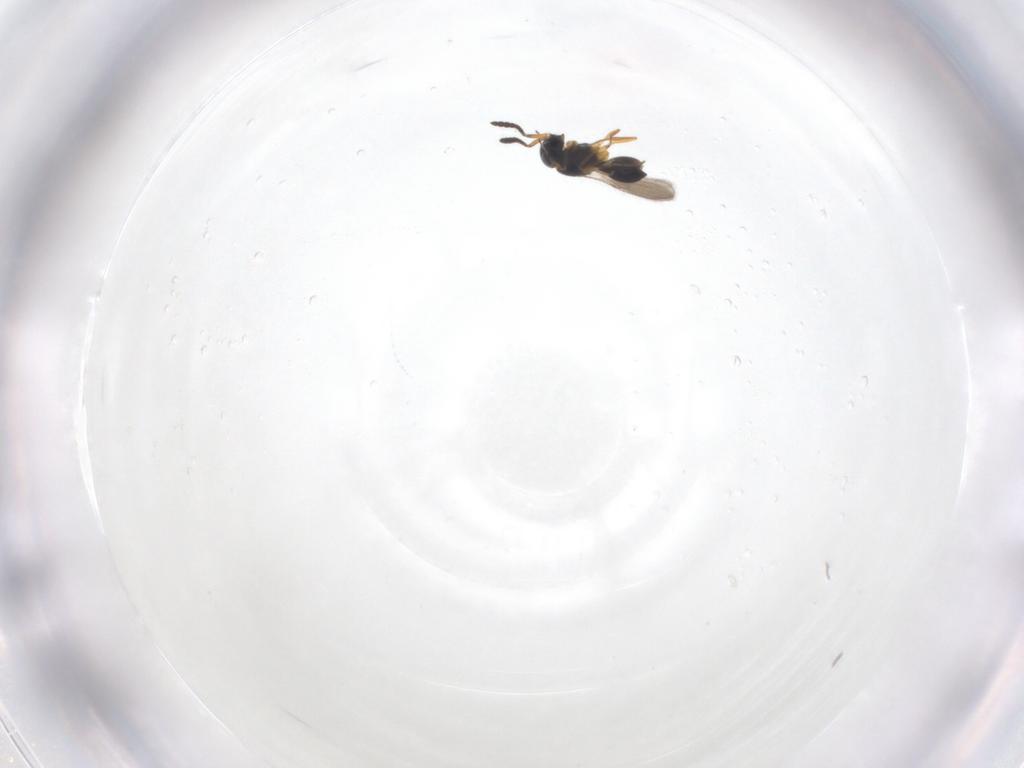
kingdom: Animalia
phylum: Arthropoda
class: Insecta
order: Hymenoptera
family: Scelionidae
